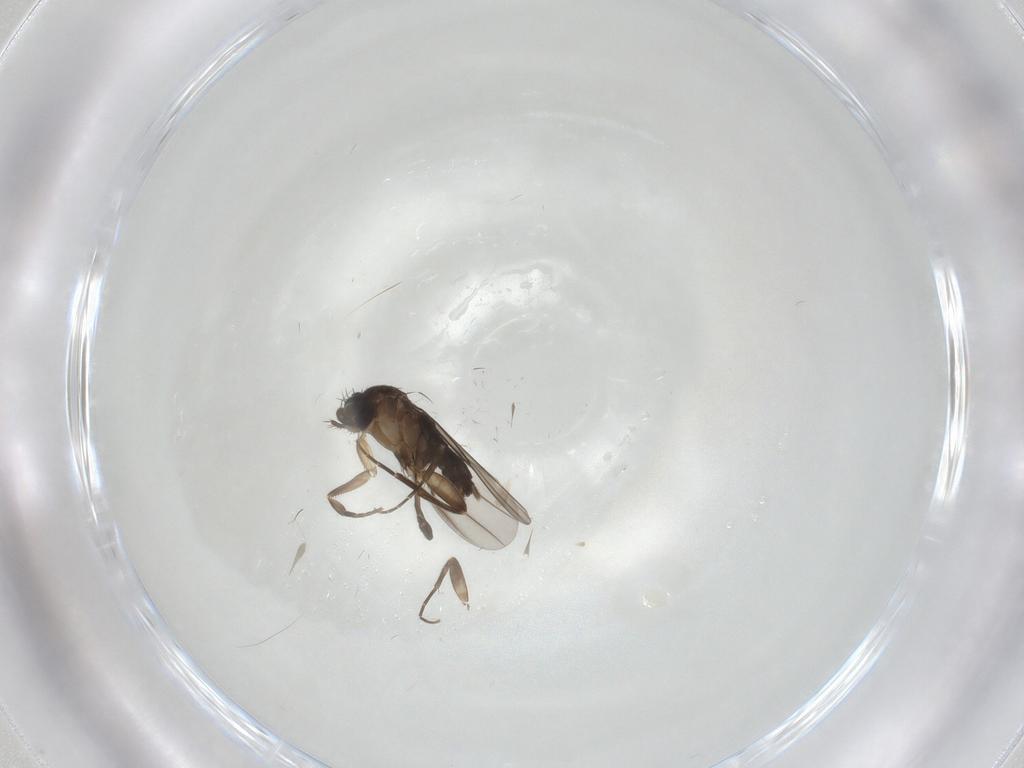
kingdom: Animalia
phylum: Arthropoda
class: Insecta
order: Diptera
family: Phoridae
